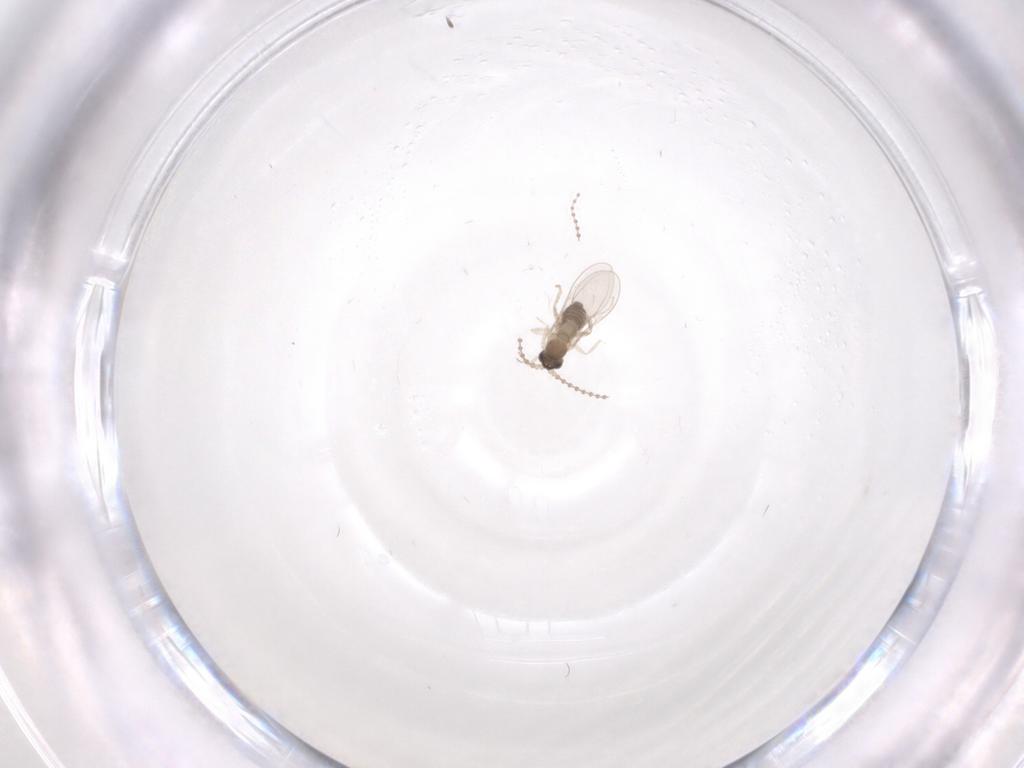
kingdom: Animalia
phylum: Arthropoda
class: Insecta
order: Diptera
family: Cecidomyiidae
